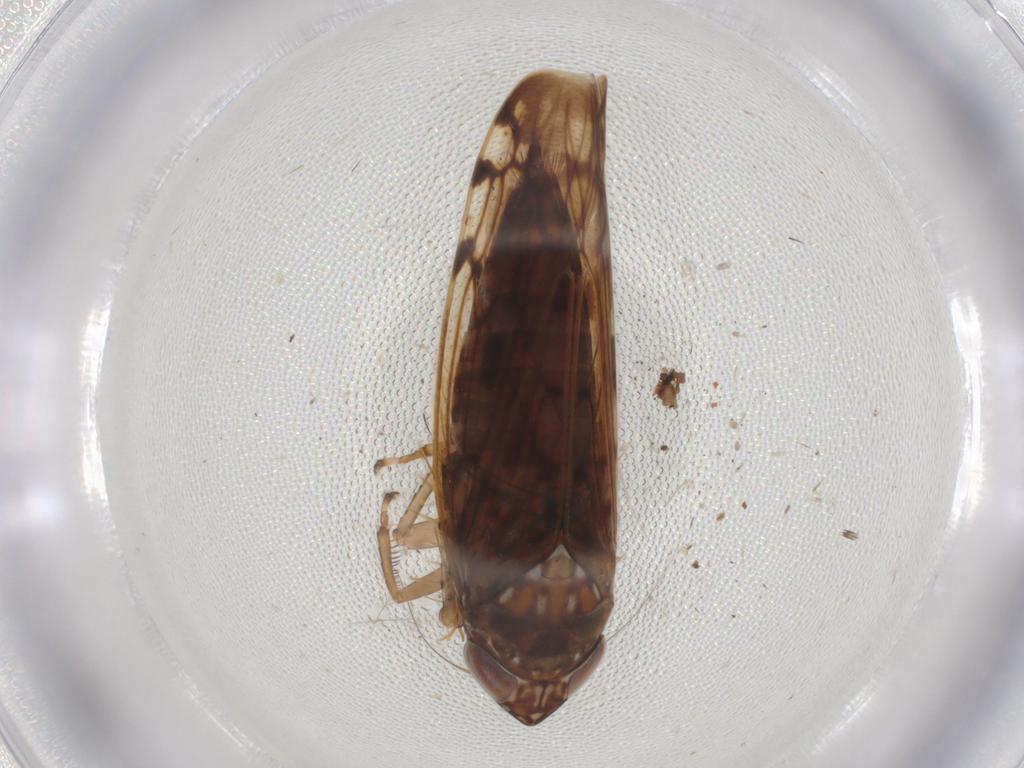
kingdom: Animalia
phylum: Arthropoda
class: Insecta
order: Hemiptera
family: Cicadellidae
